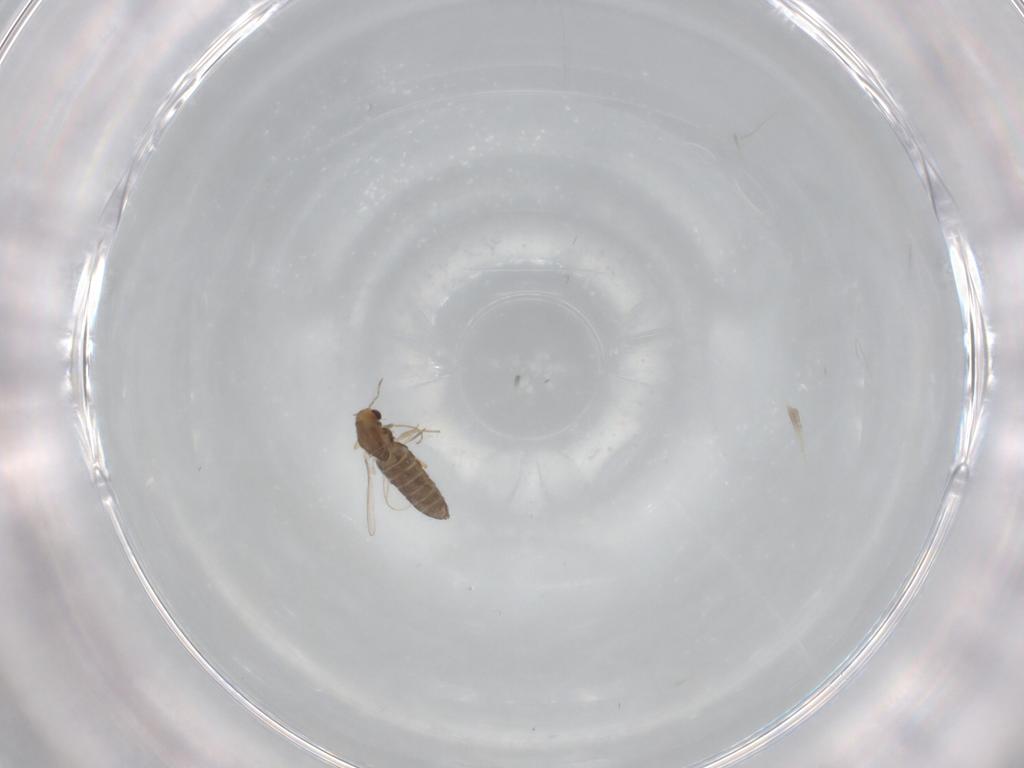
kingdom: Animalia
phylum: Arthropoda
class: Insecta
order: Diptera
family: Chironomidae
